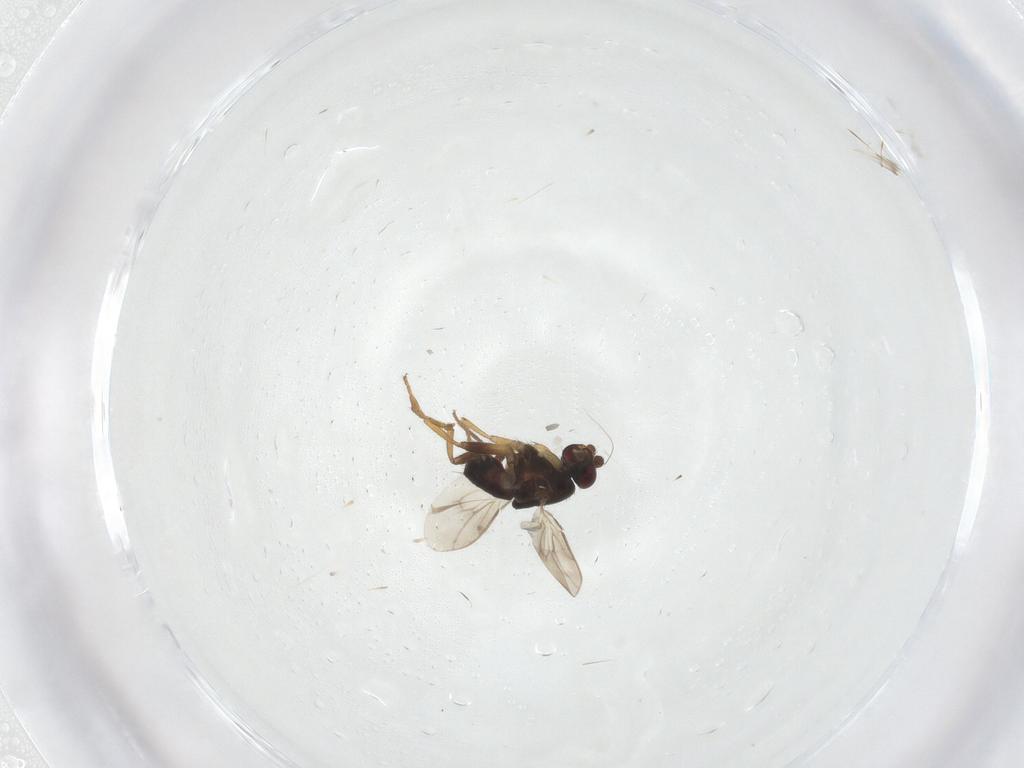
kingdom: Animalia
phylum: Arthropoda
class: Insecta
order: Diptera
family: Sphaeroceridae
